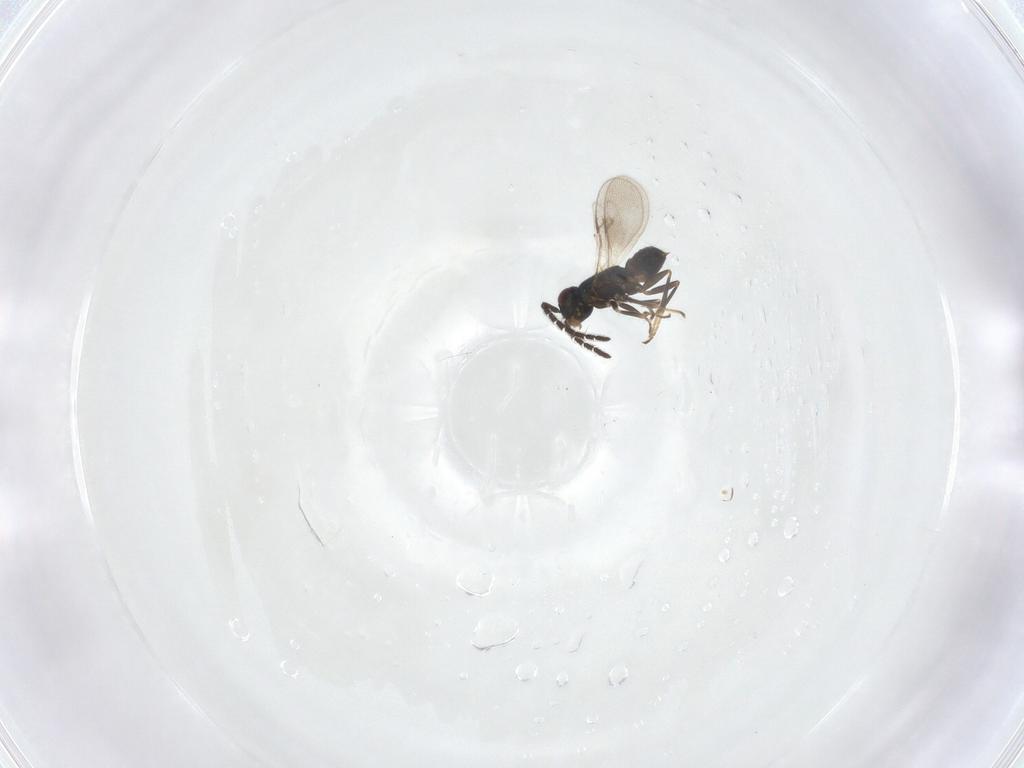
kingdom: Animalia
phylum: Arthropoda
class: Insecta
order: Hymenoptera
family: Encyrtidae
